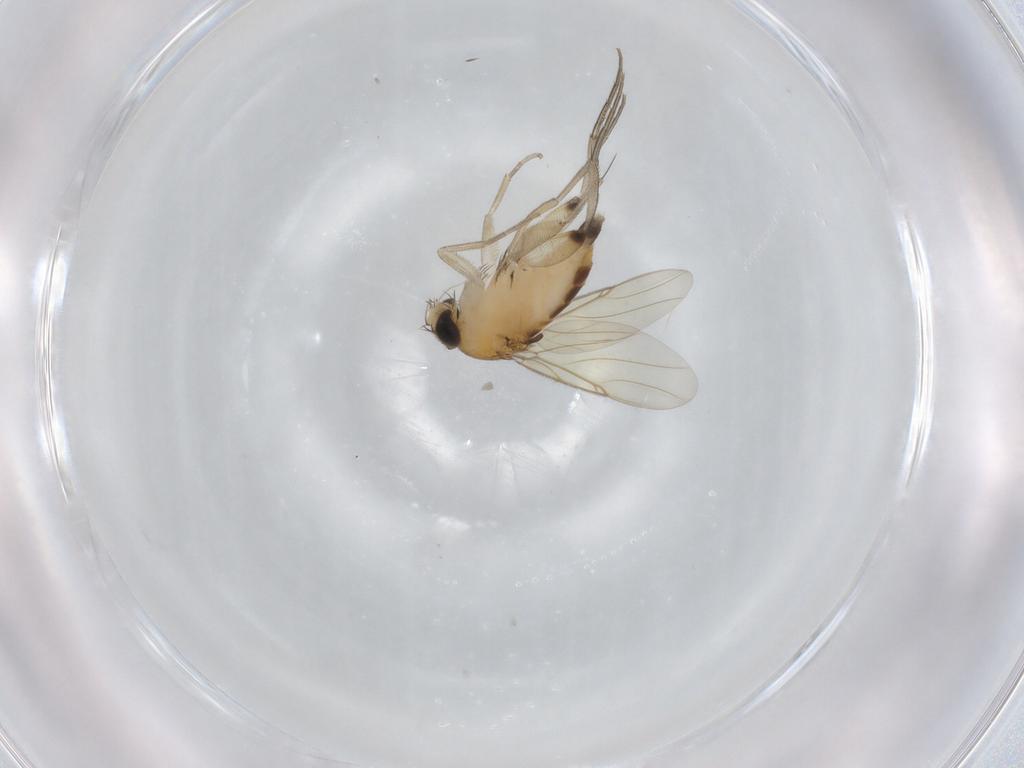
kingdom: Animalia
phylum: Arthropoda
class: Insecta
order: Diptera
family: Phoridae
